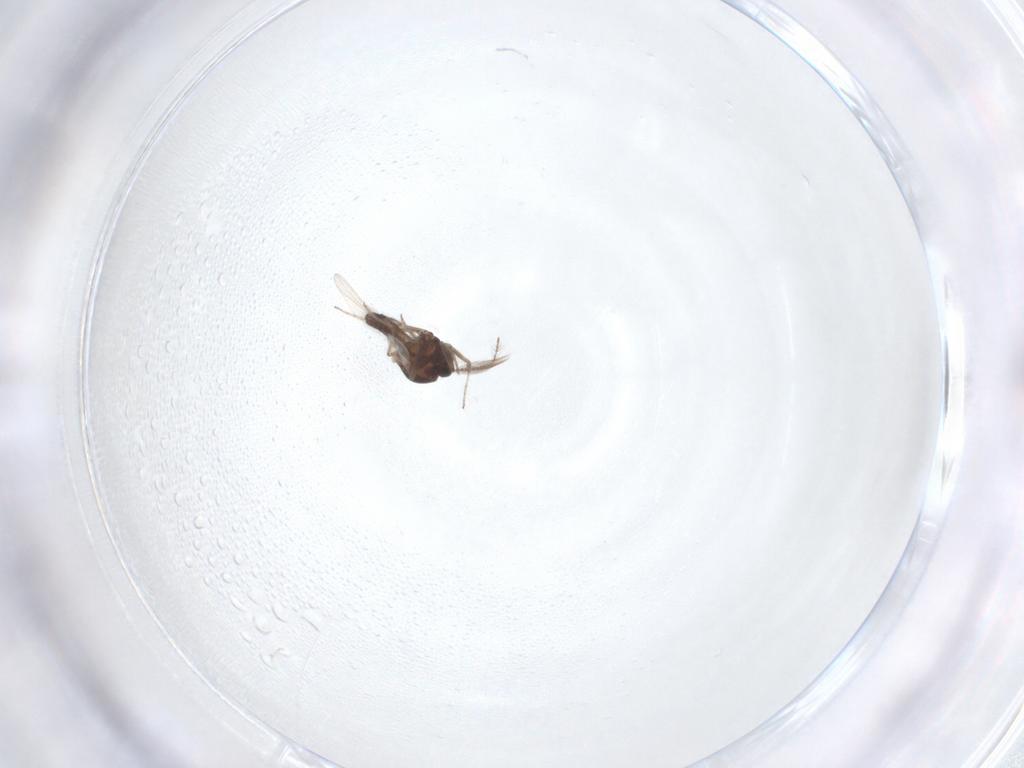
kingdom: Animalia
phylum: Arthropoda
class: Insecta
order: Diptera
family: Ceratopogonidae
